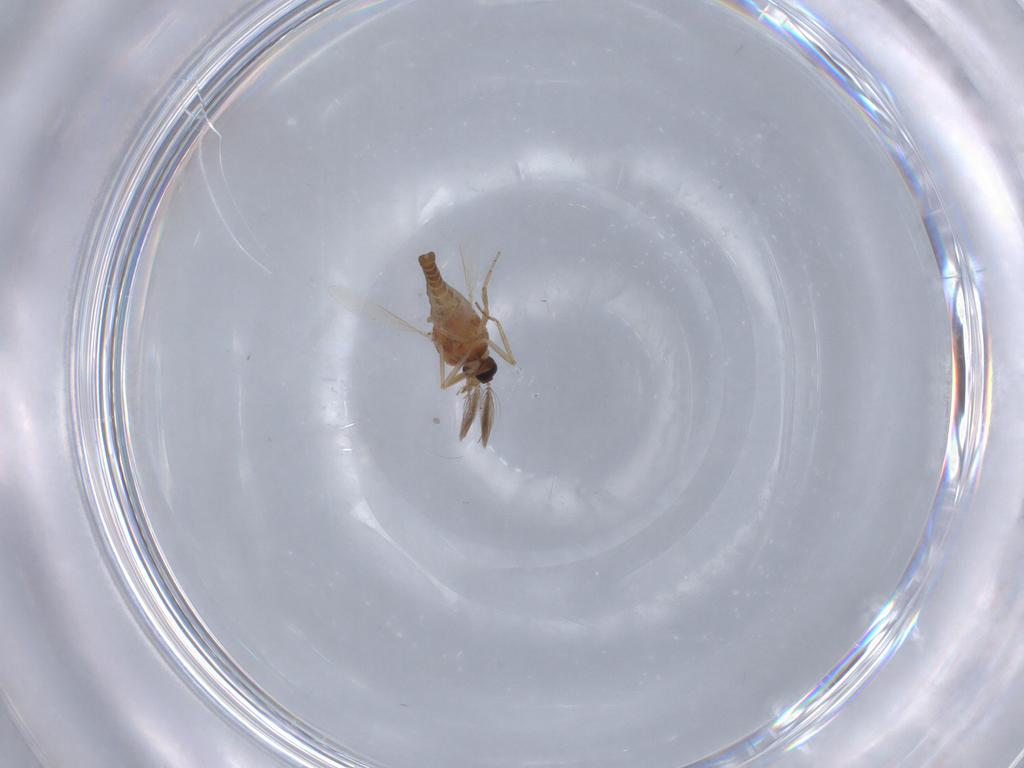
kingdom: Animalia
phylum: Arthropoda
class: Insecta
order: Diptera
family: Ceratopogonidae
